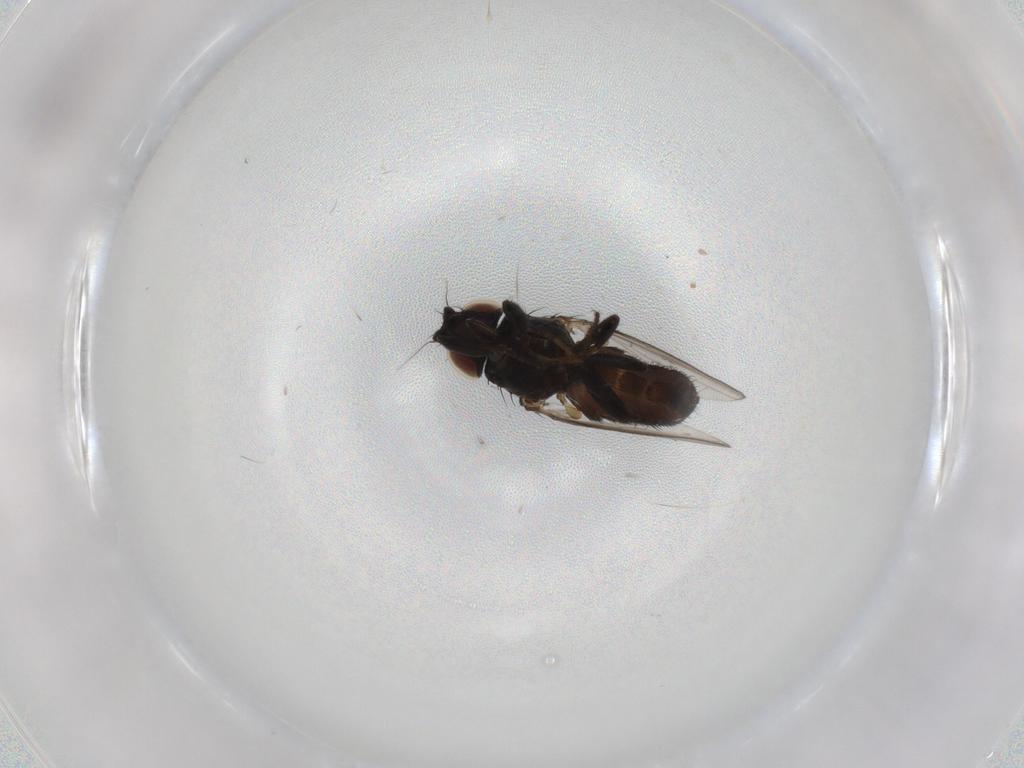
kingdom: Animalia
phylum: Arthropoda
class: Insecta
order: Diptera
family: Milichiidae
